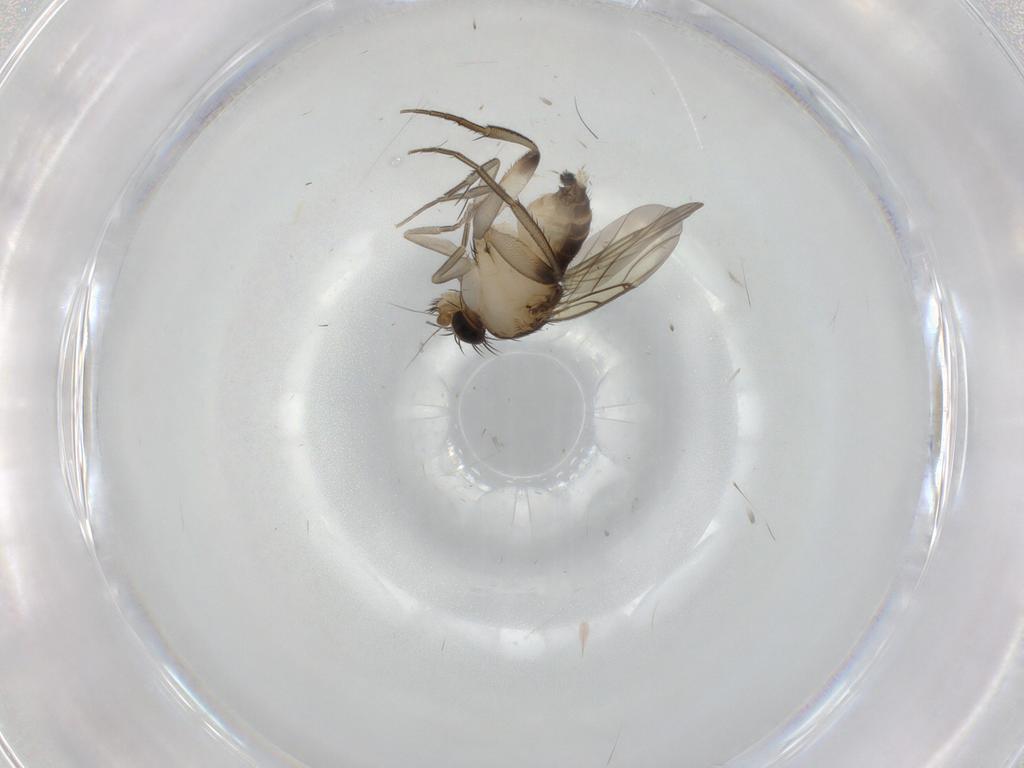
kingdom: Animalia
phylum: Arthropoda
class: Insecta
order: Diptera
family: Phoridae
